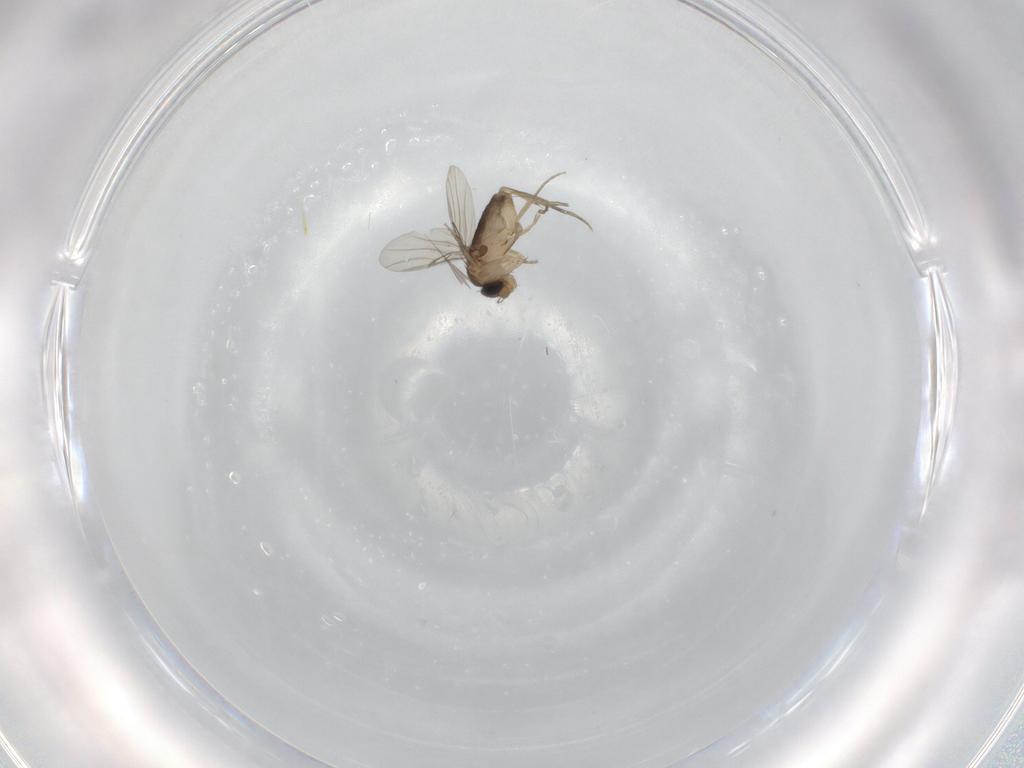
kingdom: Animalia
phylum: Arthropoda
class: Insecta
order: Diptera
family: Phoridae
